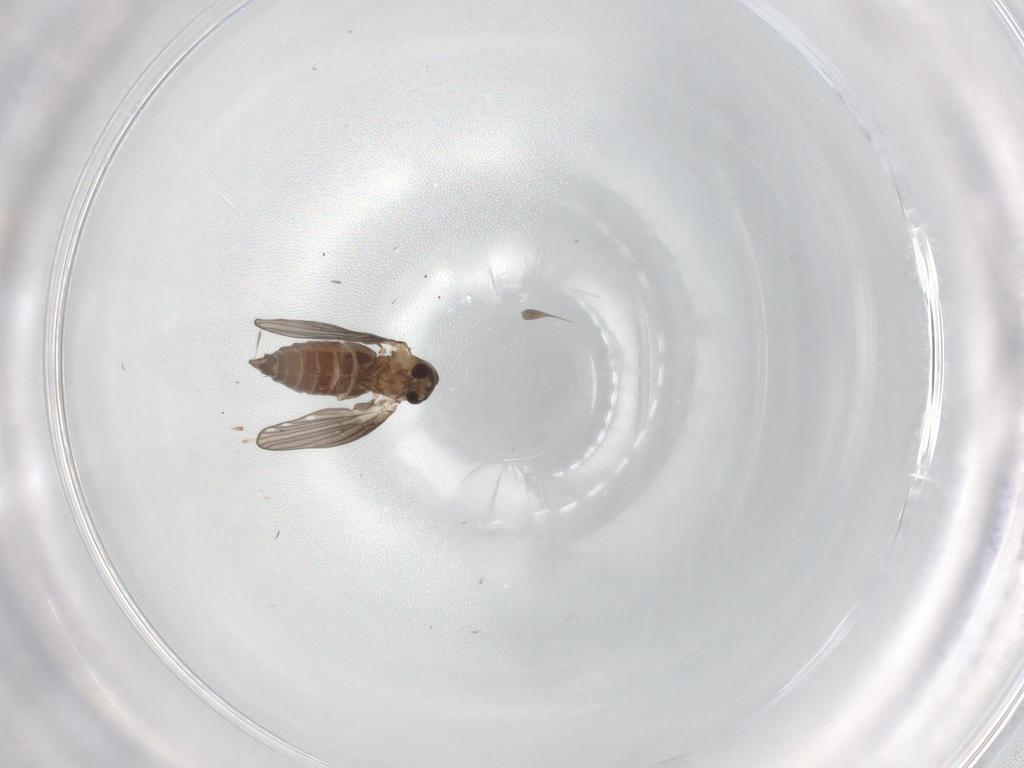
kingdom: Animalia
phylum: Arthropoda
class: Insecta
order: Diptera
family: Psychodidae
